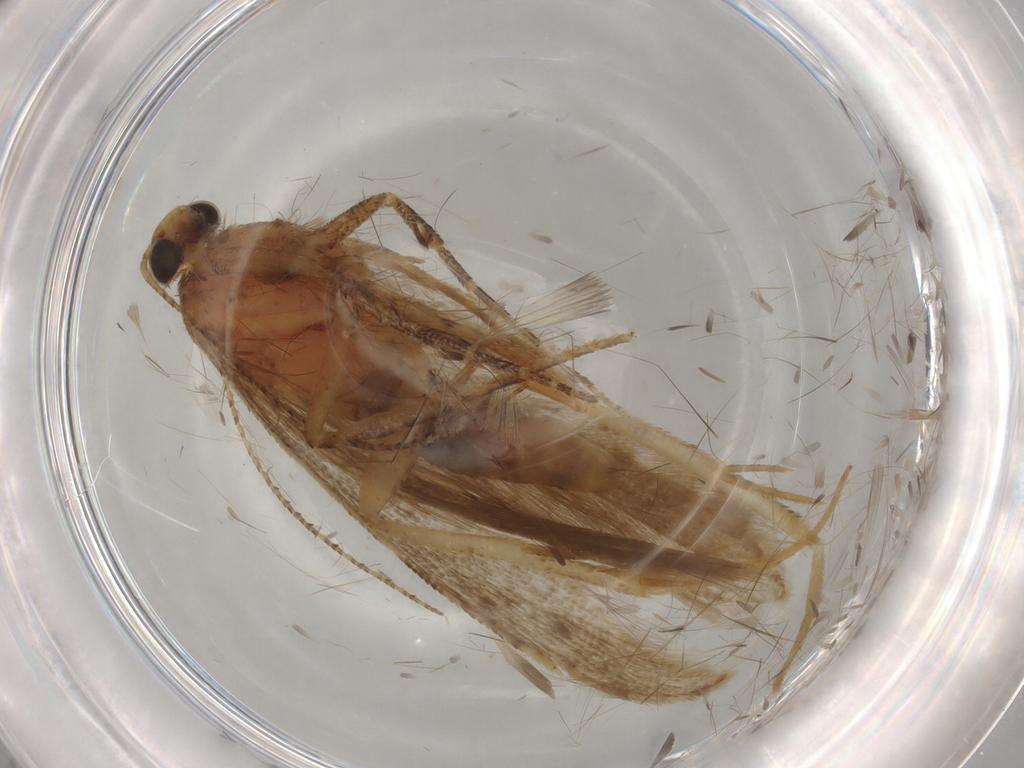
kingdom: Animalia
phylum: Arthropoda
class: Insecta
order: Lepidoptera
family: Gelechiidae
